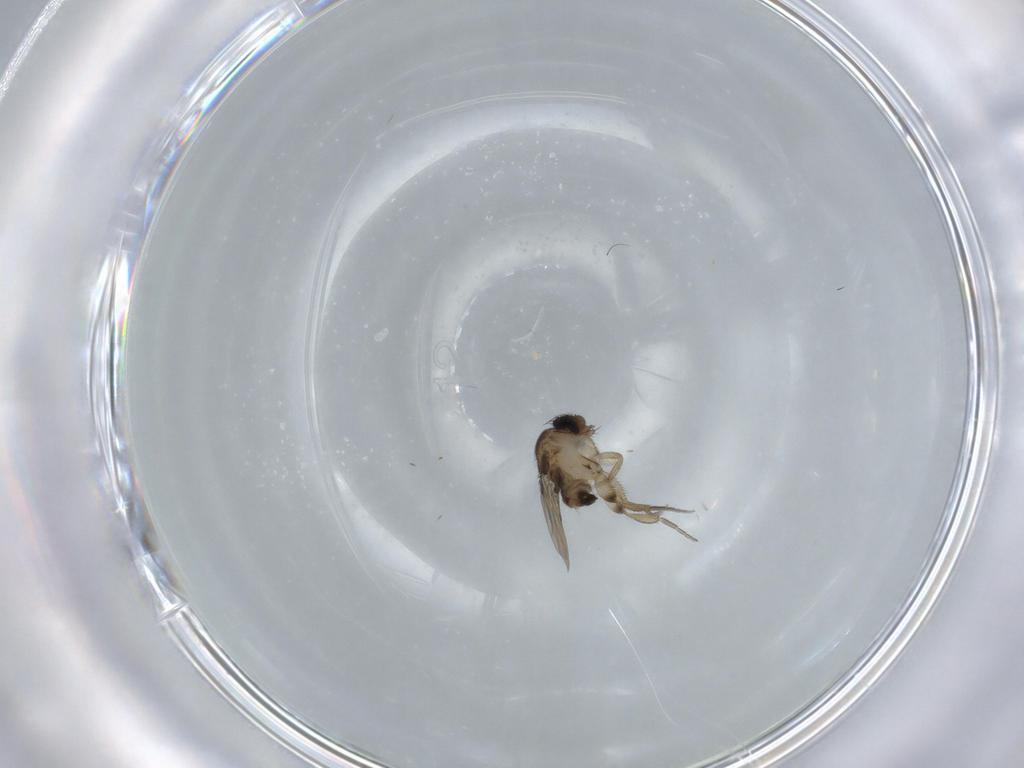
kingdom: Animalia
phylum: Arthropoda
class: Insecta
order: Diptera
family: Phoridae
